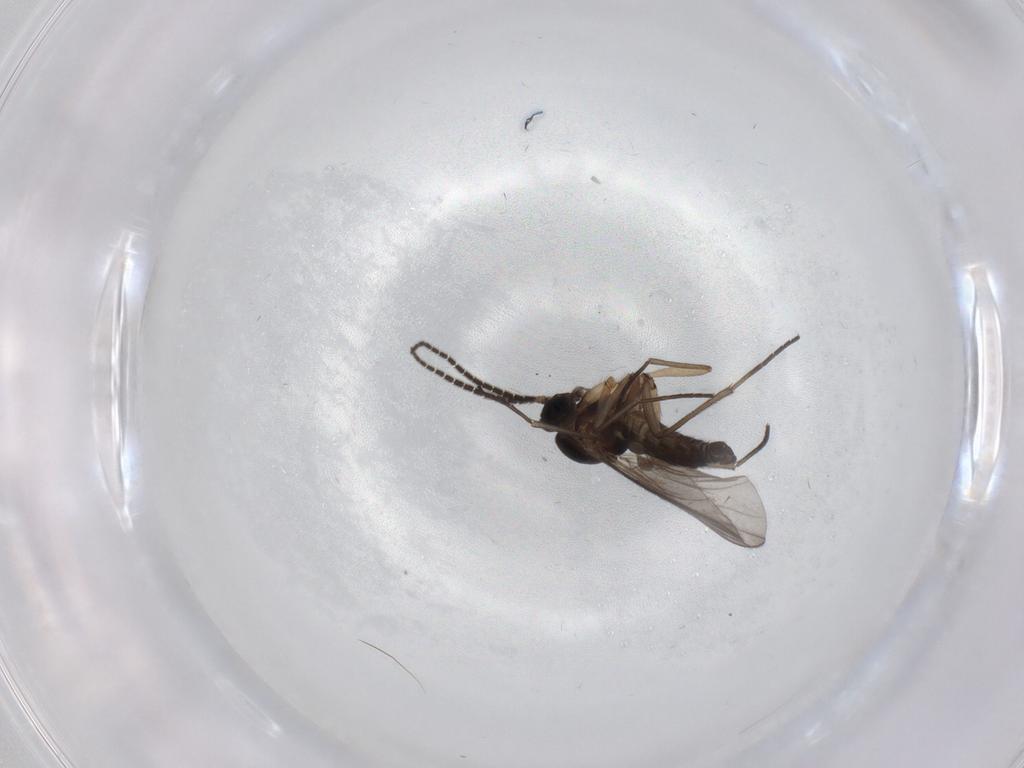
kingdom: Animalia
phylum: Arthropoda
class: Insecta
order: Diptera
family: Sciaridae
